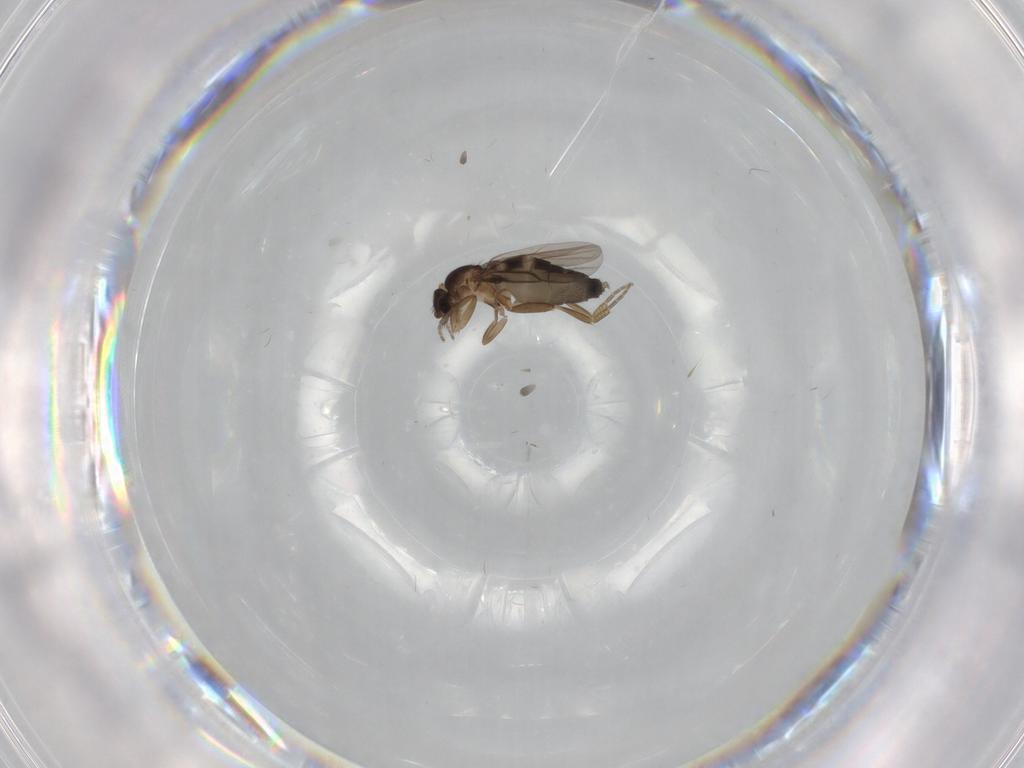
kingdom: Animalia
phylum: Arthropoda
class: Insecta
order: Diptera
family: Phoridae
